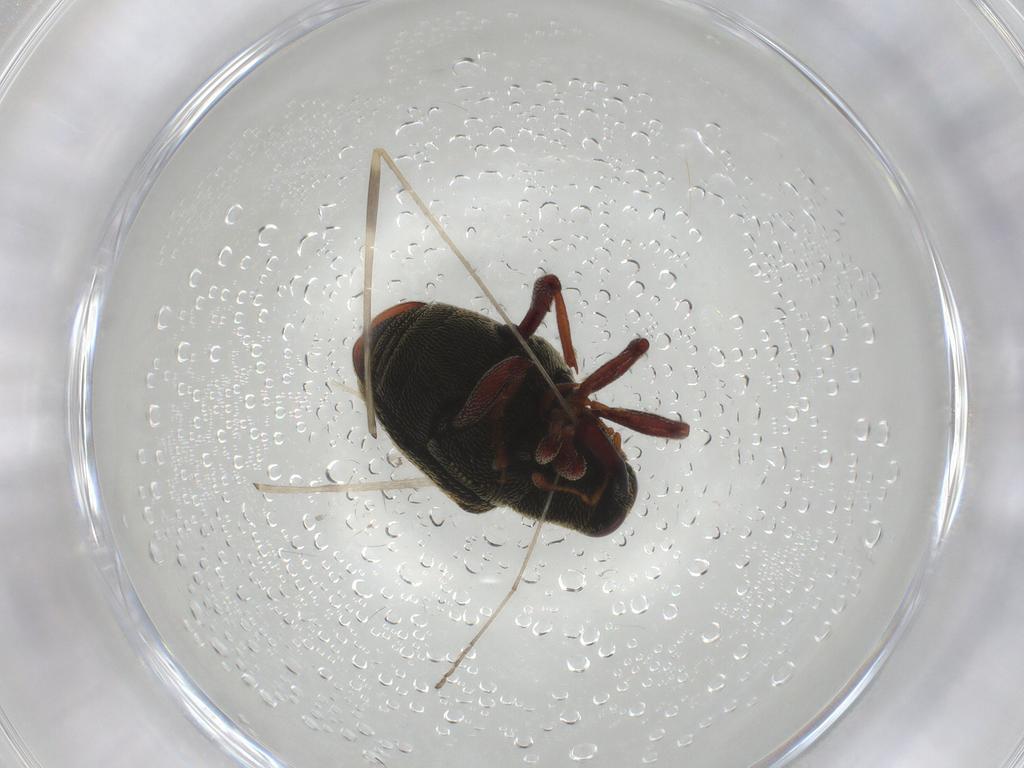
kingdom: Animalia
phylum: Arthropoda
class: Insecta
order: Coleoptera
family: Curculionidae
